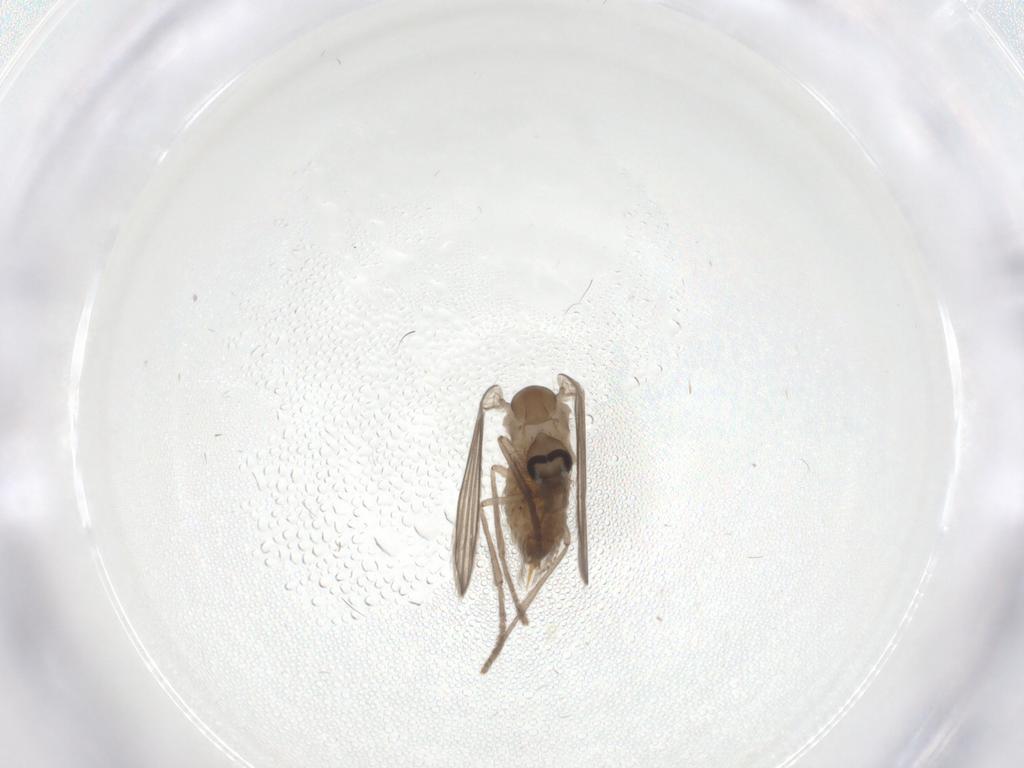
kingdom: Animalia
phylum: Arthropoda
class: Insecta
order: Diptera
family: Psychodidae
